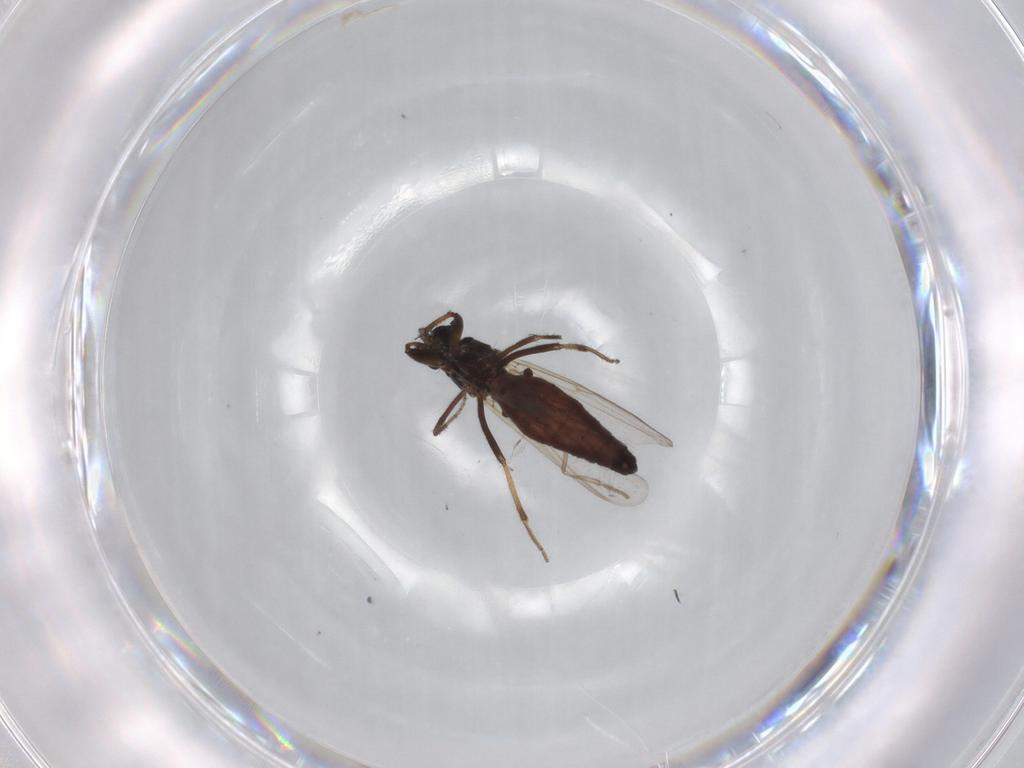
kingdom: Animalia
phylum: Arthropoda
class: Insecta
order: Diptera
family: Ceratopogonidae
